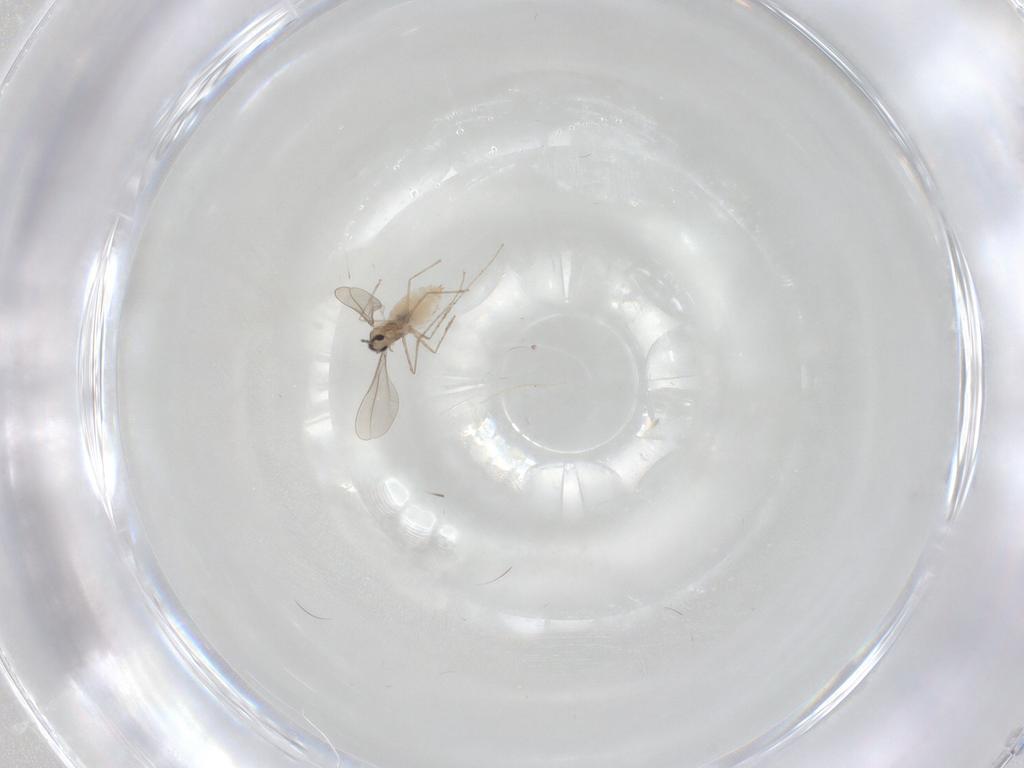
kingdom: Animalia
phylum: Arthropoda
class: Insecta
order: Diptera
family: Cecidomyiidae
